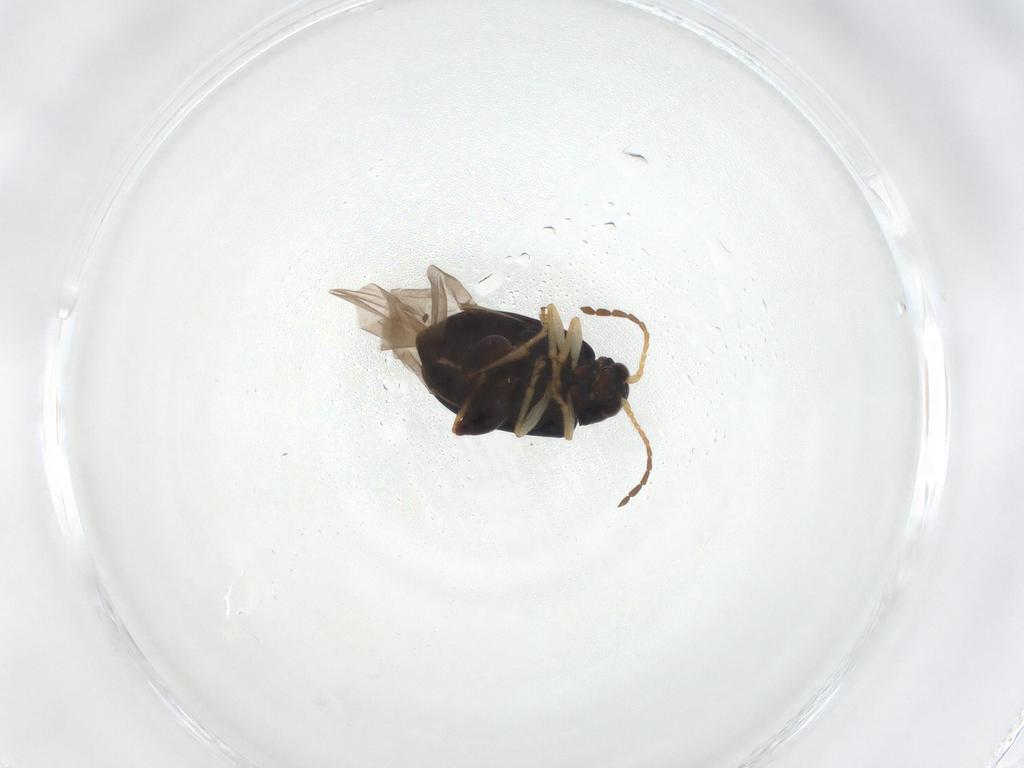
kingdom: Animalia
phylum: Arthropoda
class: Insecta
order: Coleoptera
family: Chrysomelidae
